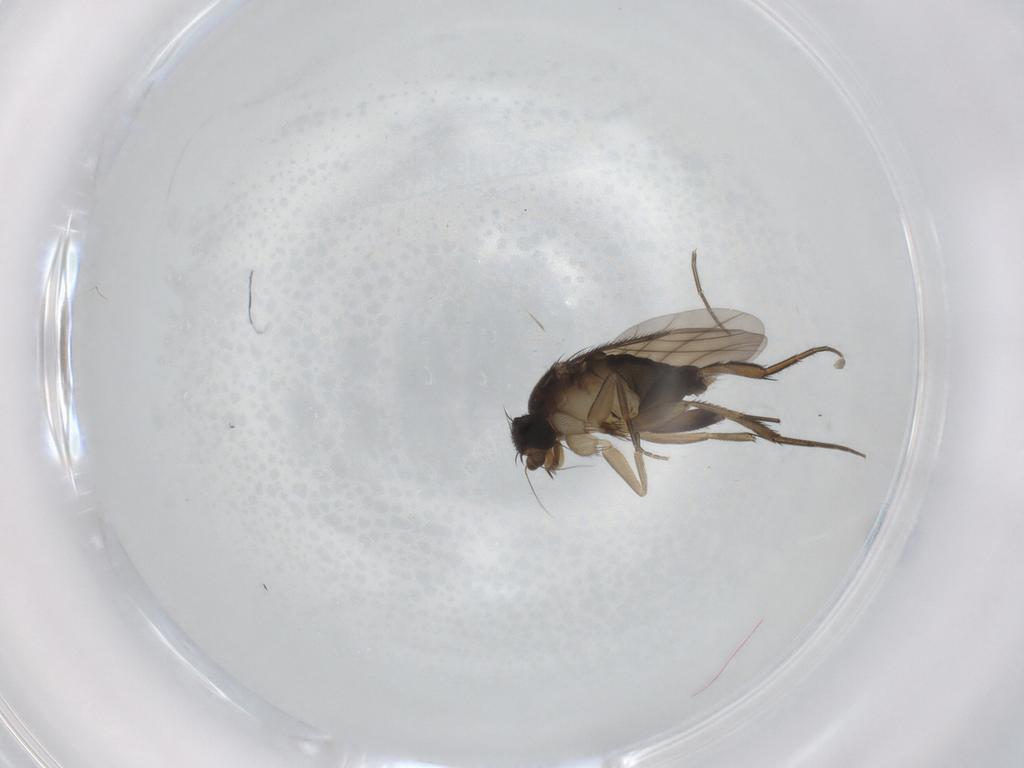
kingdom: Animalia
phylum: Arthropoda
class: Insecta
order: Diptera
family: Phoridae
